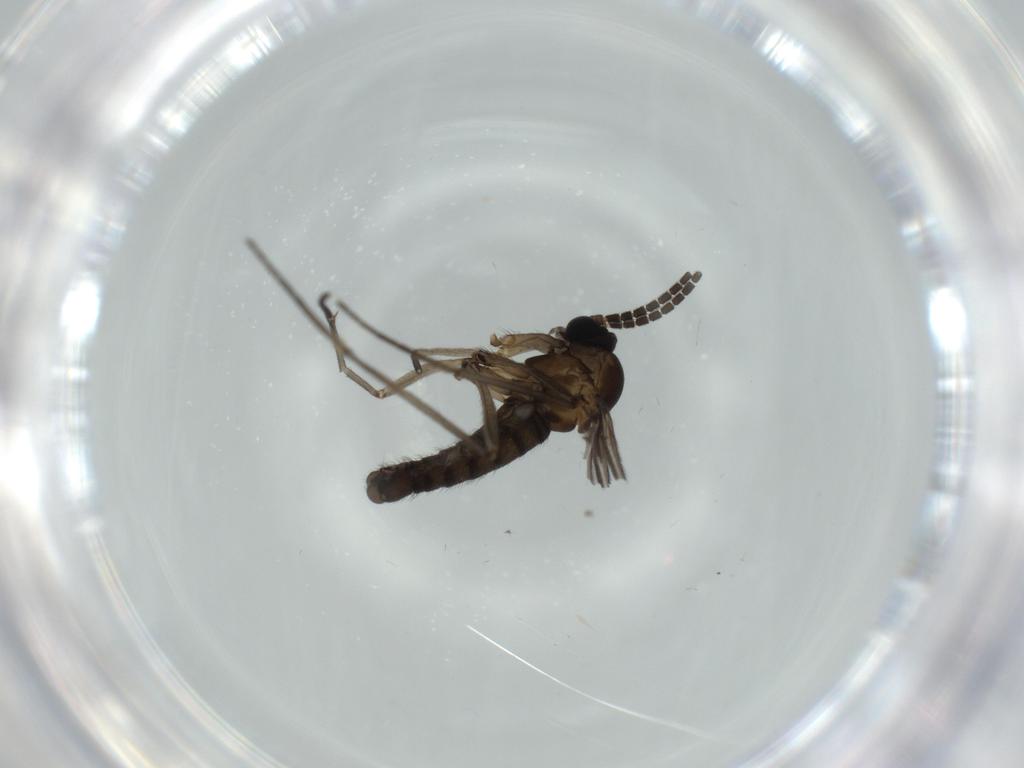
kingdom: Animalia
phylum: Arthropoda
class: Insecta
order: Diptera
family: Sciaridae
